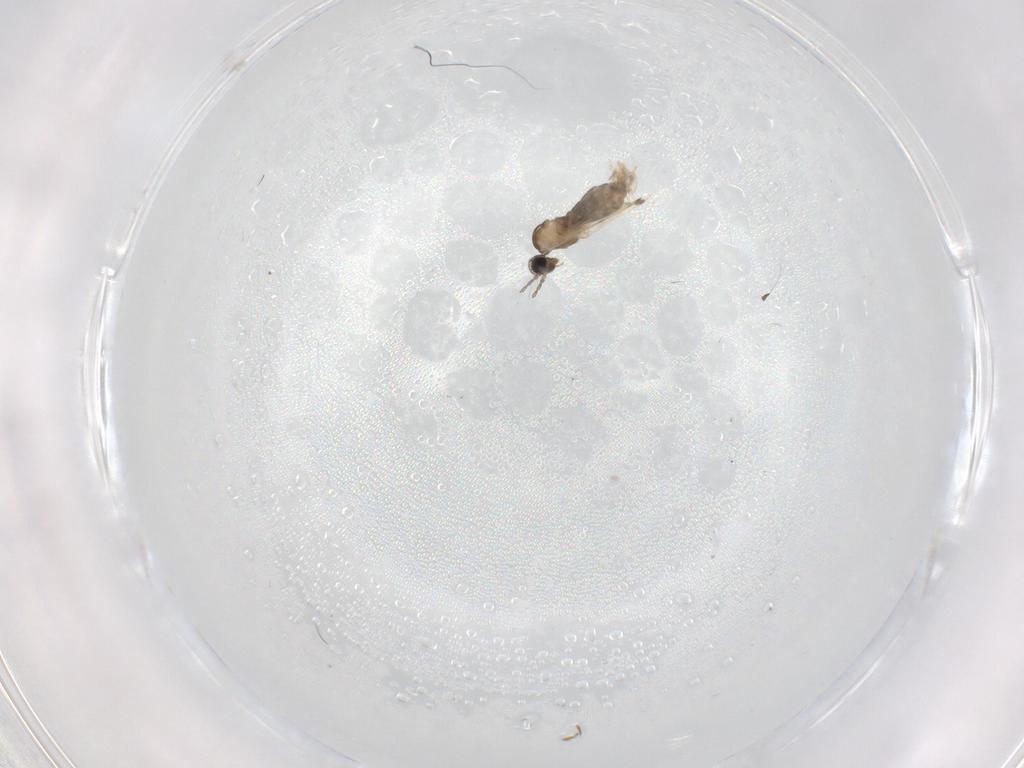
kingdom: Animalia
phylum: Arthropoda
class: Insecta
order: Diptera
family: Cecidomyiidae
